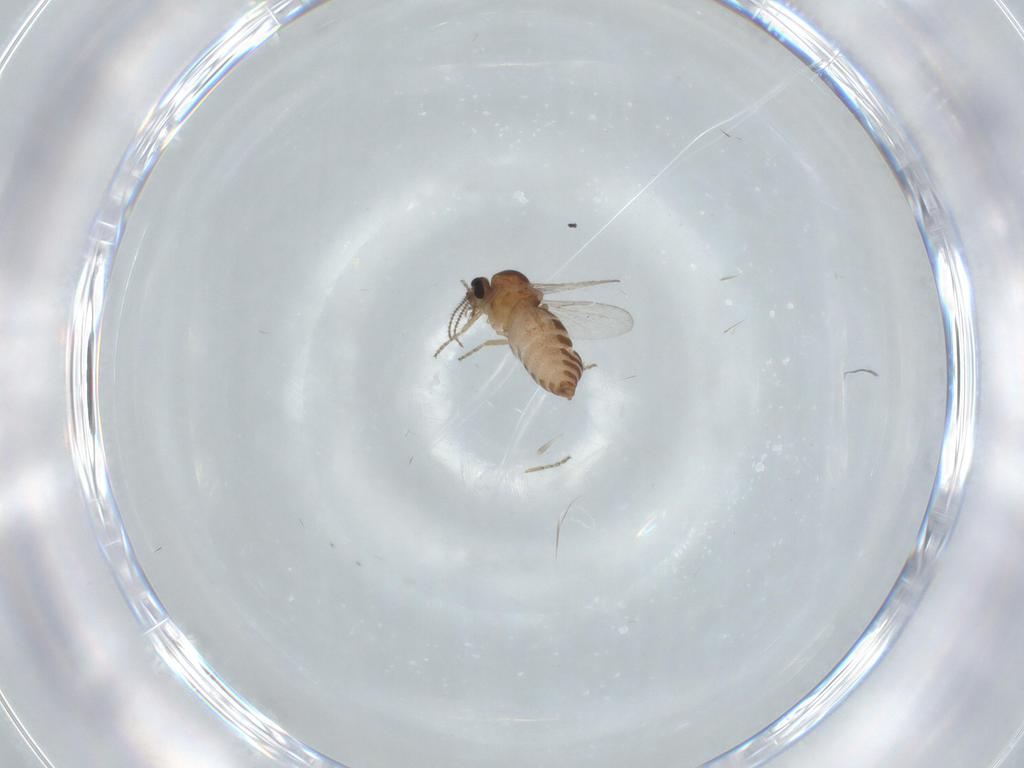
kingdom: Animalia
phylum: Arthropoda
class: Insecta
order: Diptera
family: Ceratopogonidae
